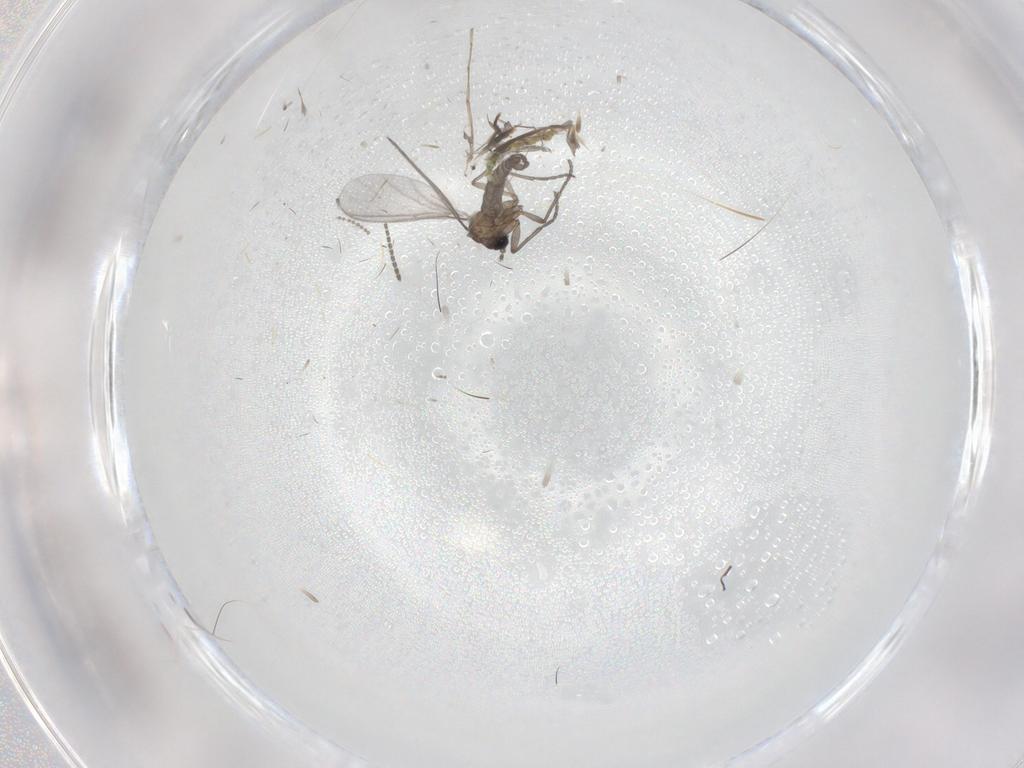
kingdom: Animalia
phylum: Arthropoda
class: Insecta
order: Diptera
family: Sciaridae
